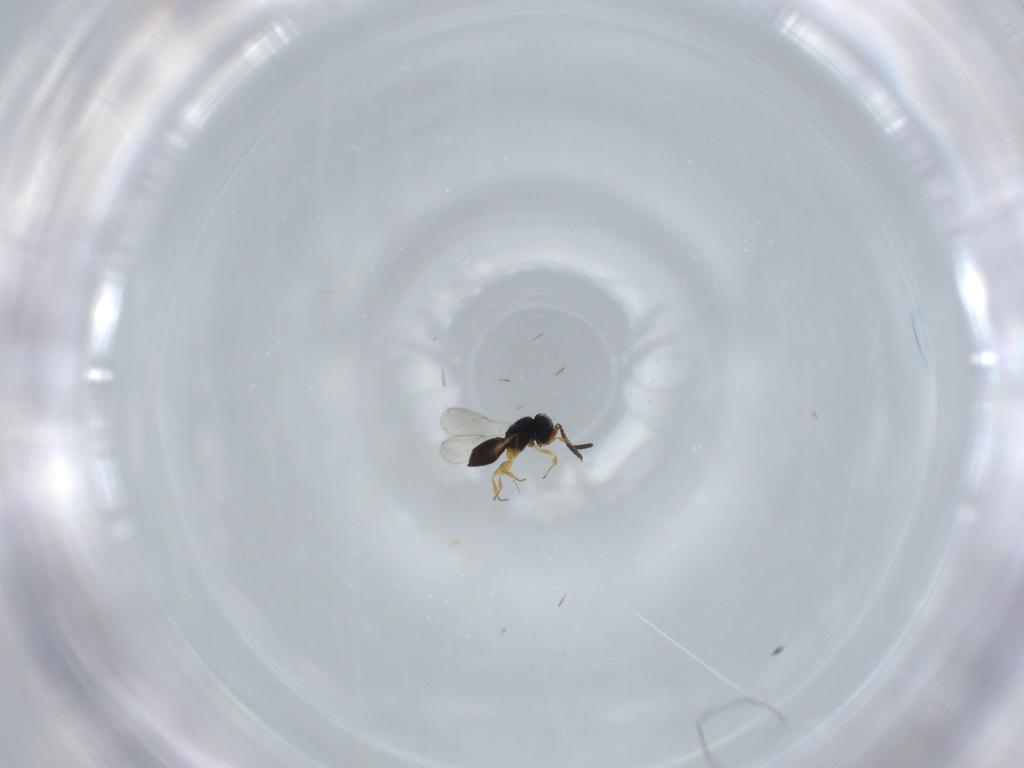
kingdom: Animalia
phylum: Arthropoda
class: Insecta
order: Hymenoptera
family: Scelionidae
